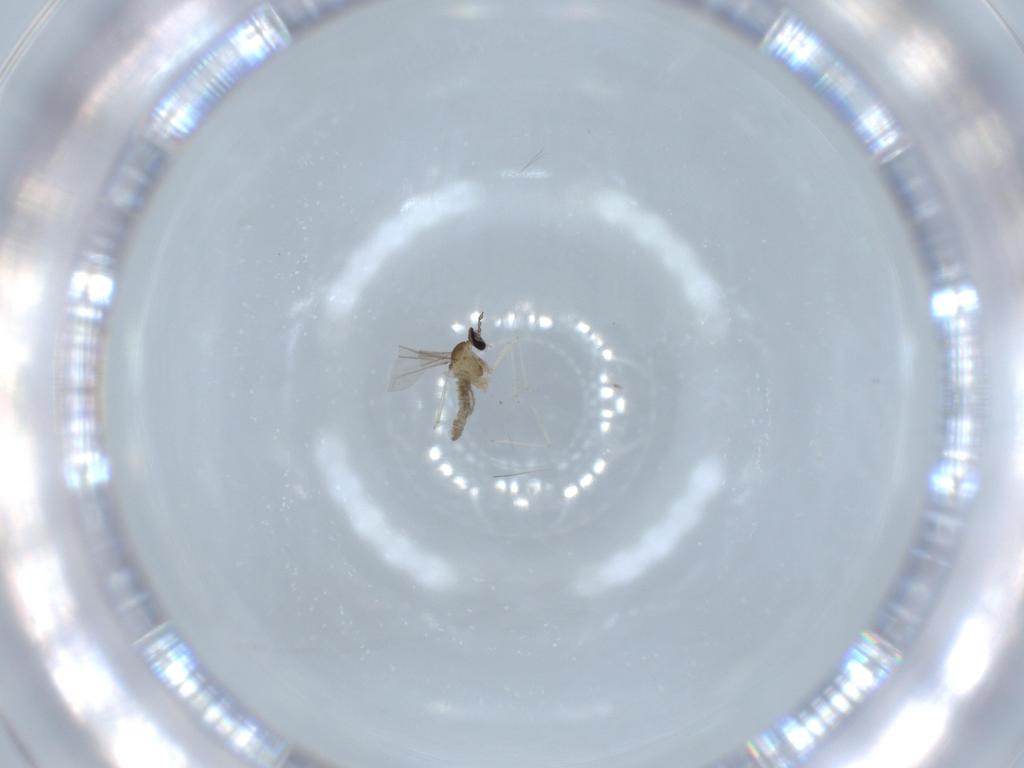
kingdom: Animalia
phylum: Arthropoda
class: Insecta
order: Diptera
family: Cecidomyiidae
